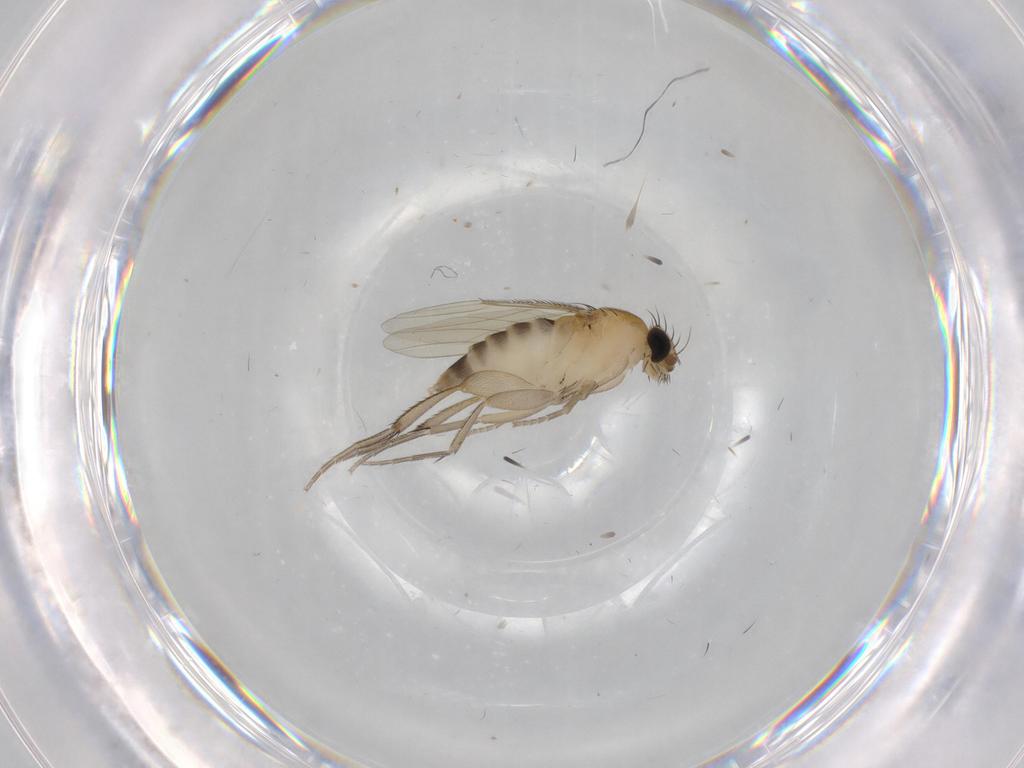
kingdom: Animalia
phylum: Arthropoda
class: Insecta
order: Diptera
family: Phoridae
